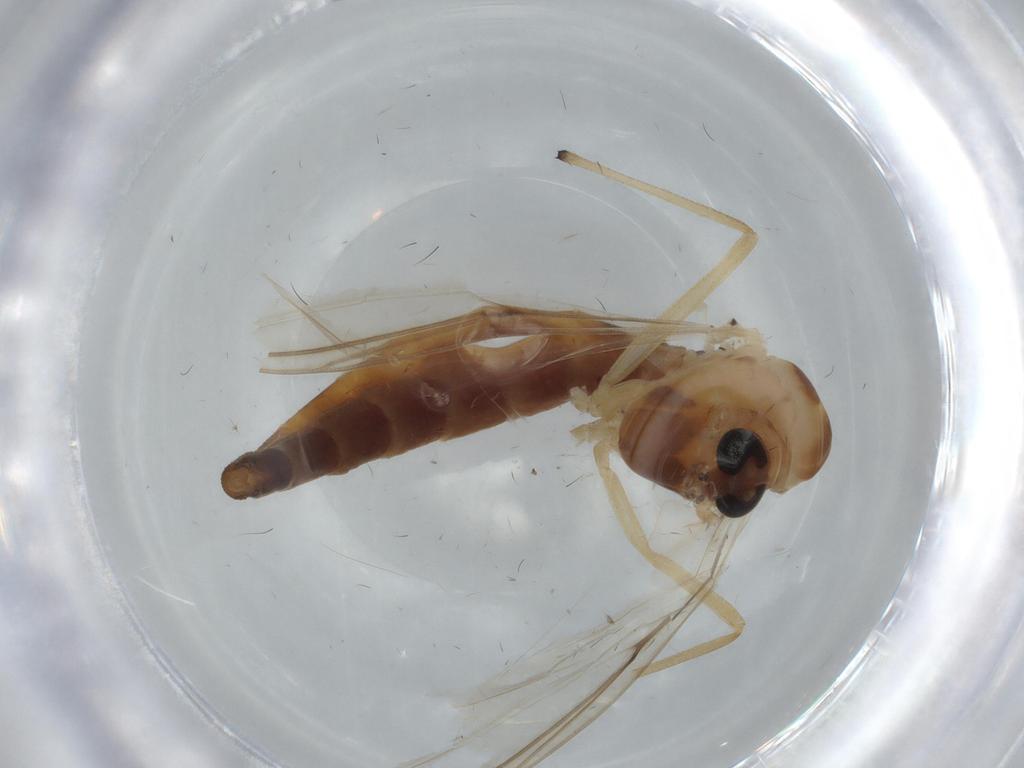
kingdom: Animalia
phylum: Arthropoda
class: Insecta
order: Diptera
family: Chironomidae
